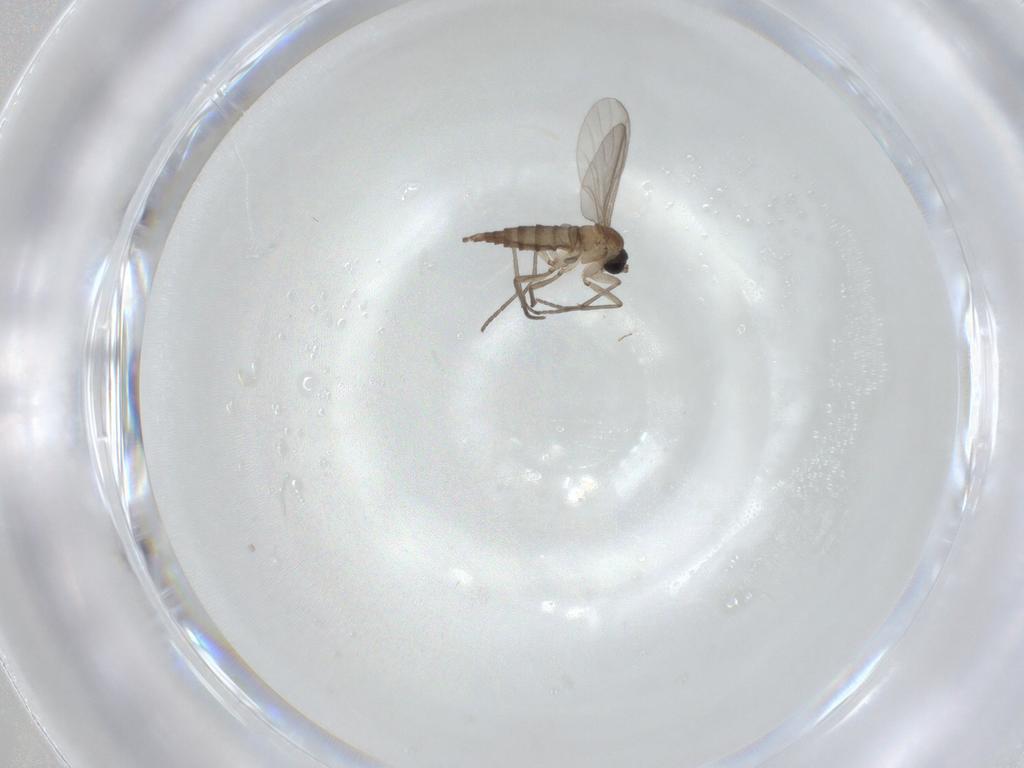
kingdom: Animalia
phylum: Arthropoda
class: Insecta
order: Diptera
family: Sciaridae
